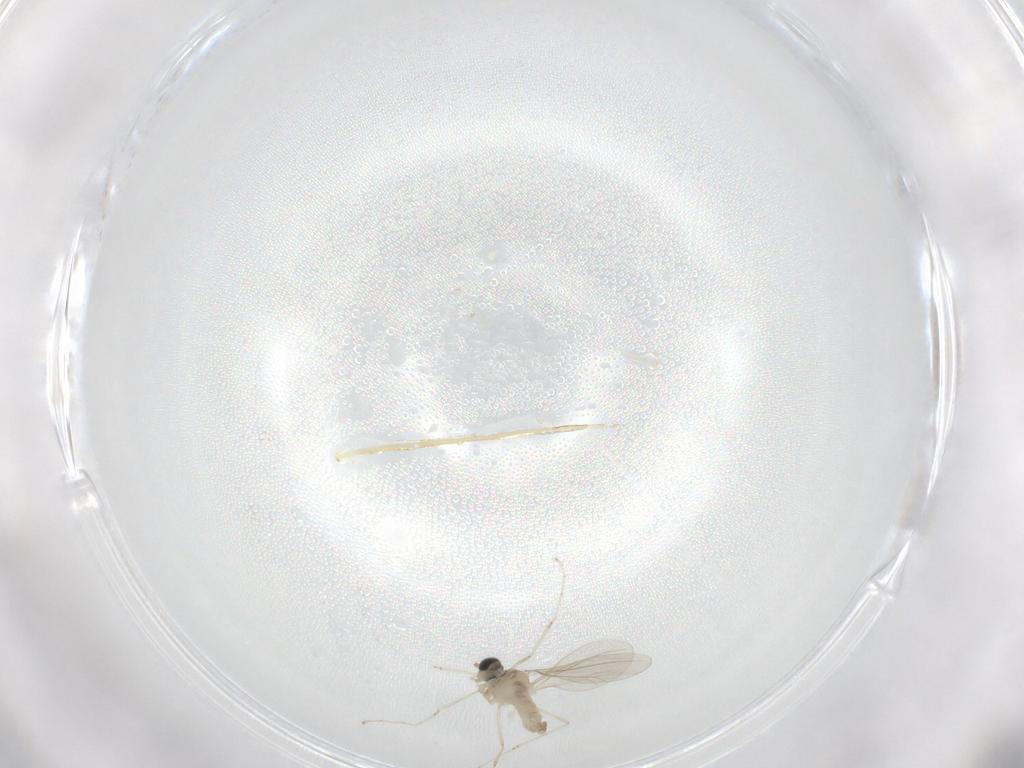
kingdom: Animalia
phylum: Arthropoda
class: Insecta
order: Diptera
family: Cecidomyiidae
